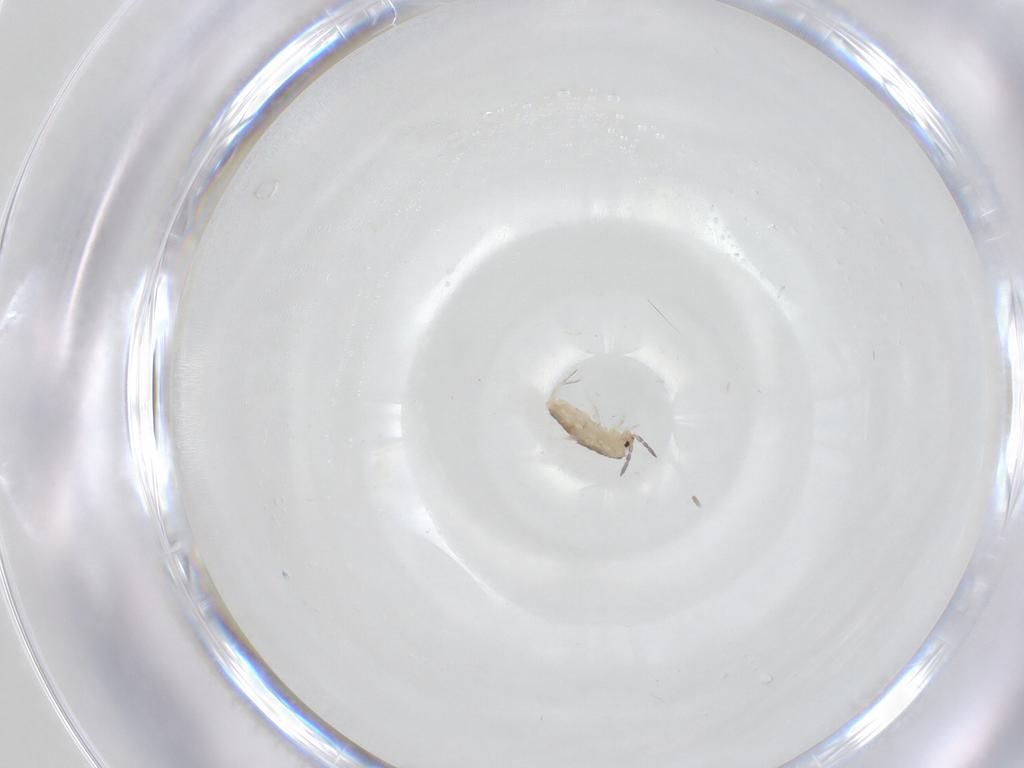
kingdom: Animalia
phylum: Arthropoda
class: Collembola
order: Entomobryomorpha
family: Entomobryidae
